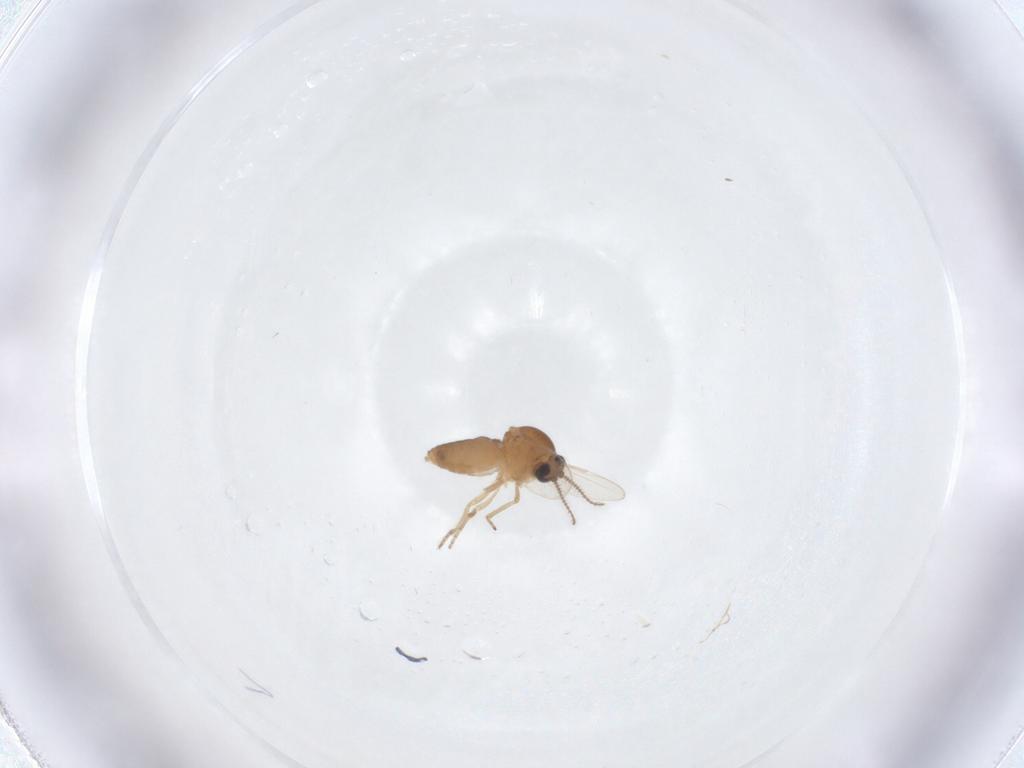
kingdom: Animalia
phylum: Arthropoda
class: Insecta
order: Diptera
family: Ceratopogonidae
